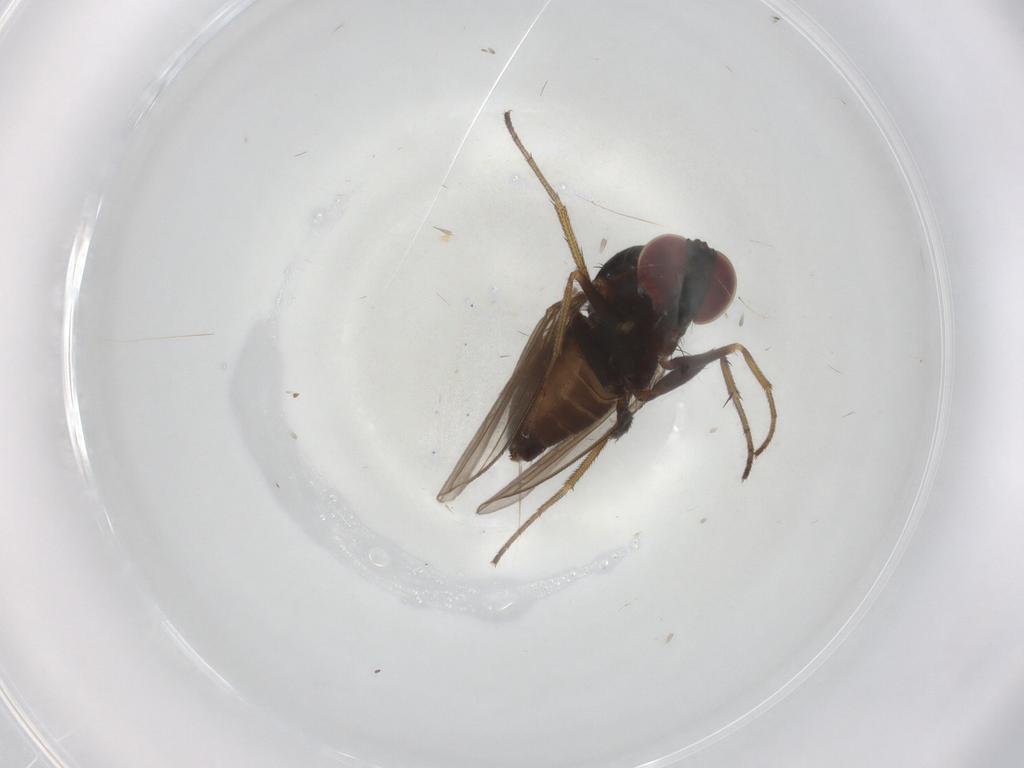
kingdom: Animalia
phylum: Arthropoda
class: Insecta
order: Diptera
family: Dolichopodidae
